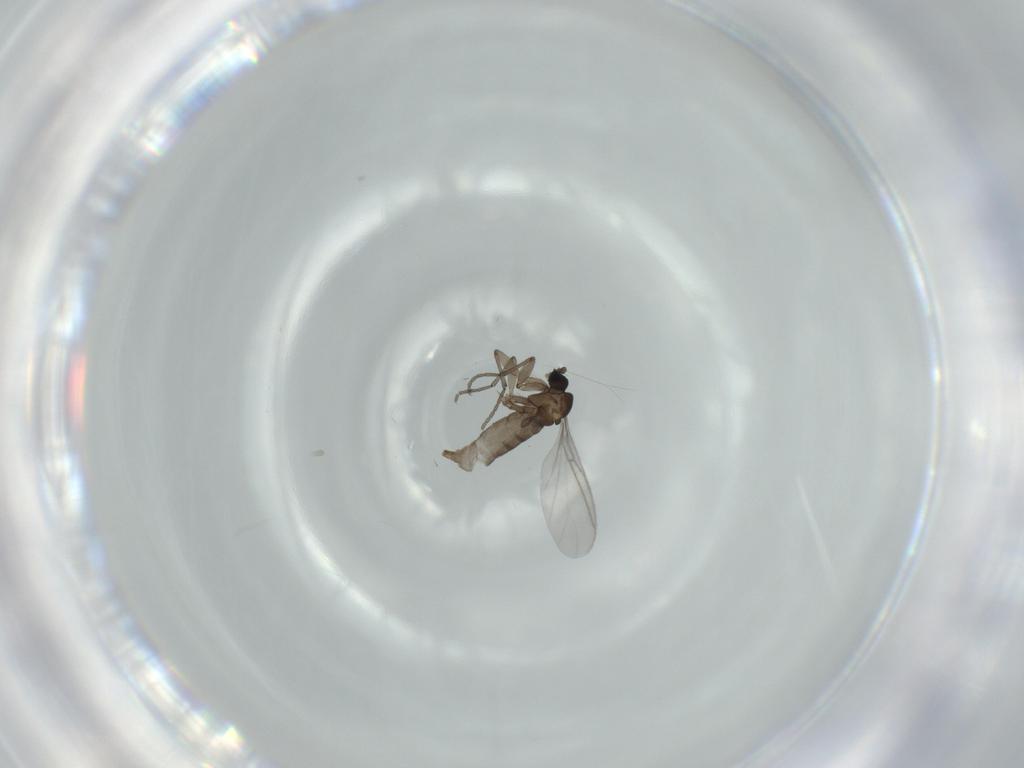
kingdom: Animalia
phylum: Arthropoda
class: Insecta
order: Diptera
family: Sciaridae
